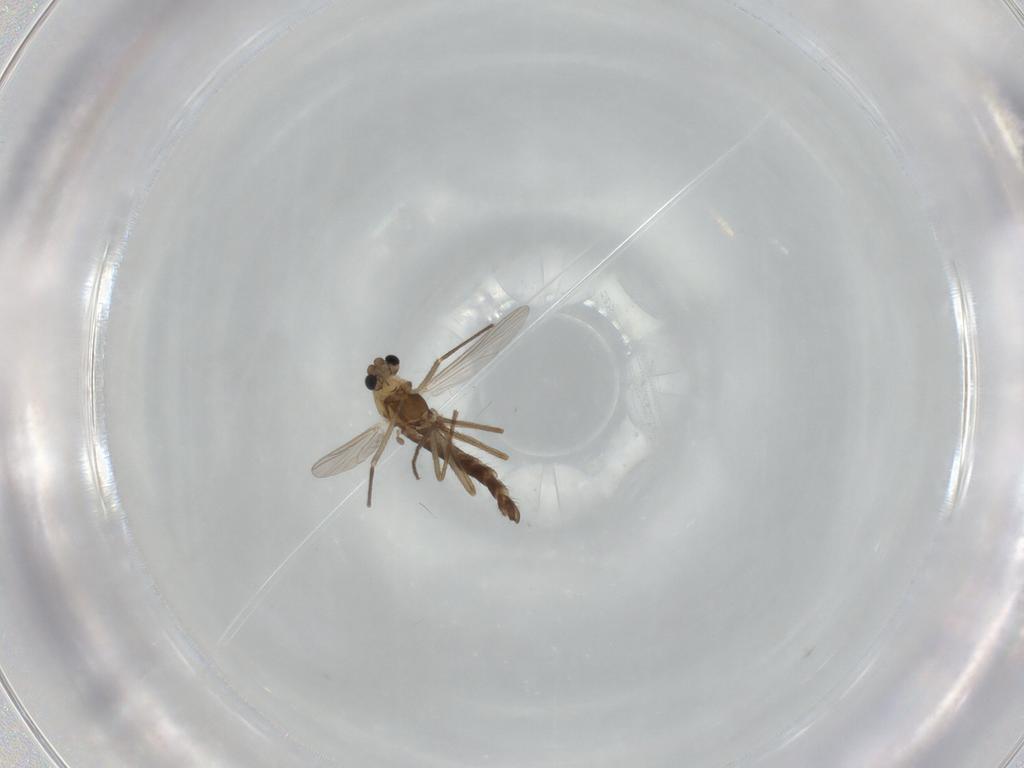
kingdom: Animalia
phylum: Arthropoda
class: Insecta
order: Diptera
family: Chironomidae
